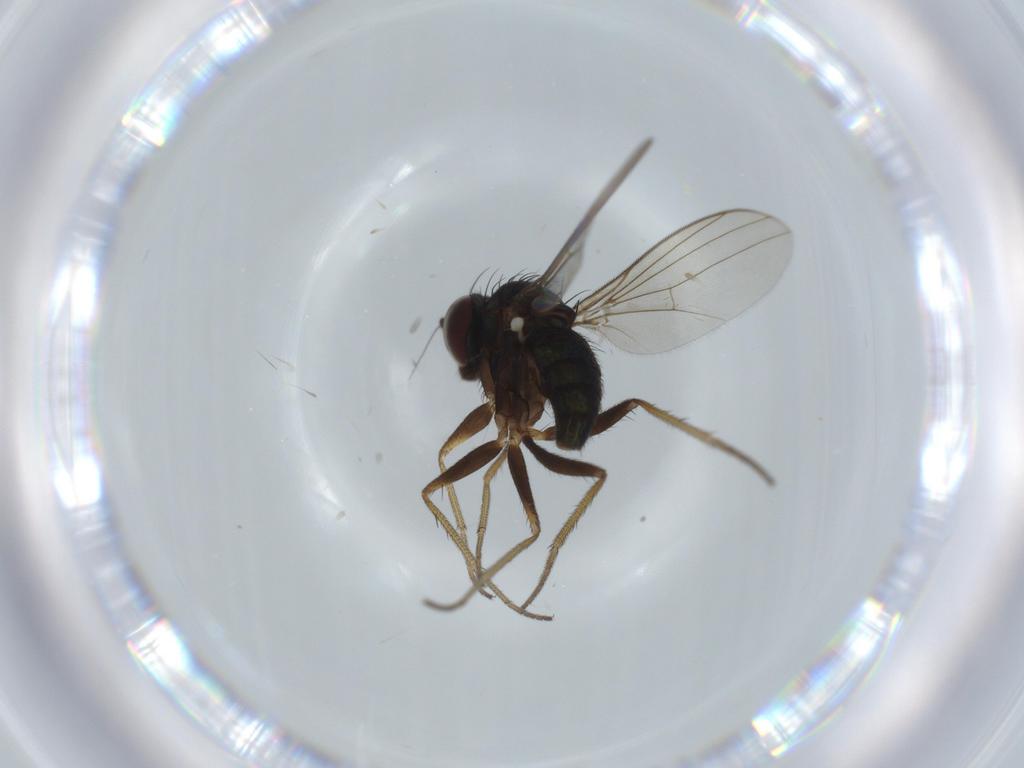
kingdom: Animalia
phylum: Arthropoda
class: Insecta
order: Diptera
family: Dolichopodidae
